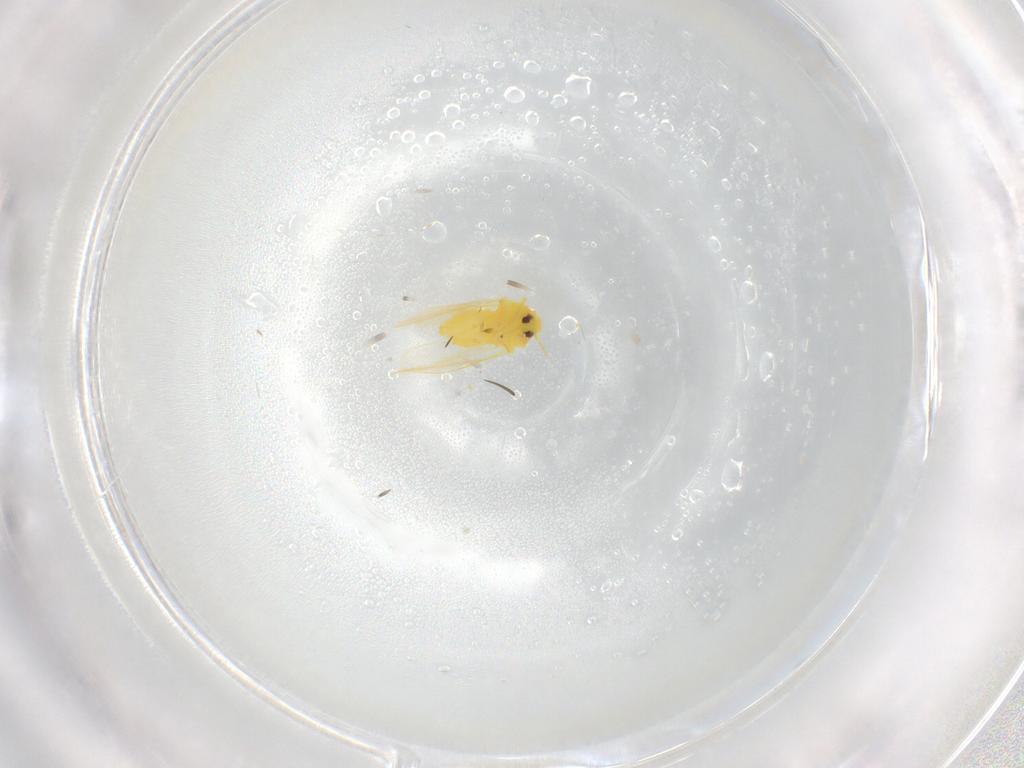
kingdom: Animalia
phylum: Arthropoda
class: Insecta
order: Hemiptera
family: Aleyrodidae
